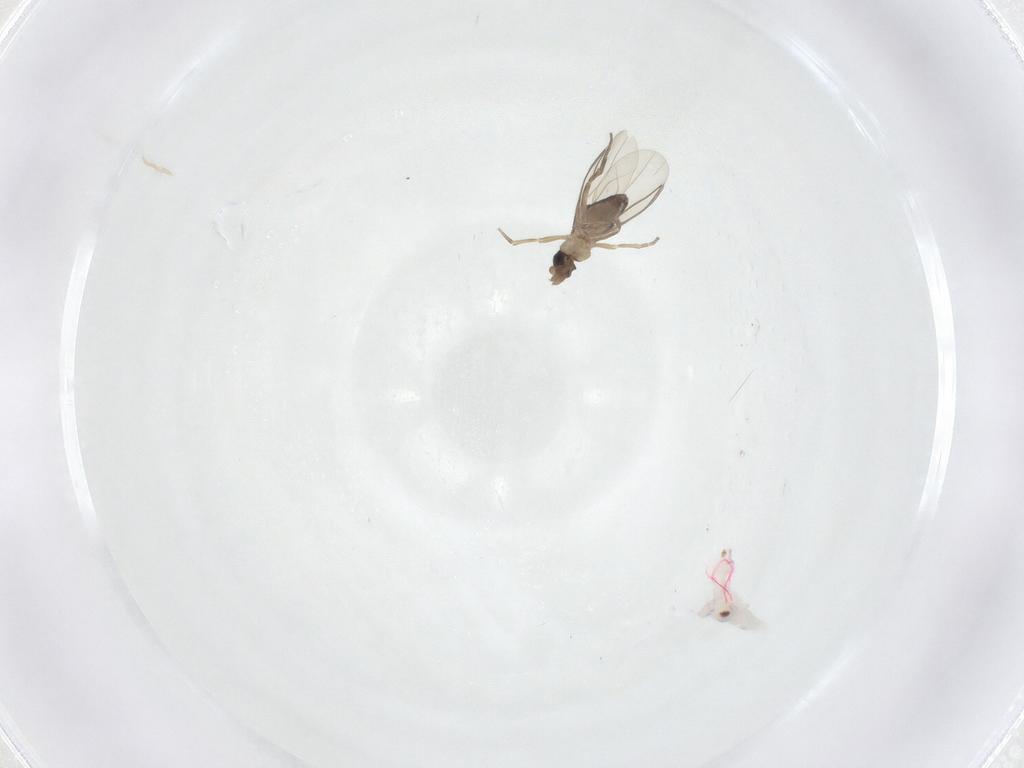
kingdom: Animalia
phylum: Arthropoda
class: Insecta
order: Diptera
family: Phoridae
